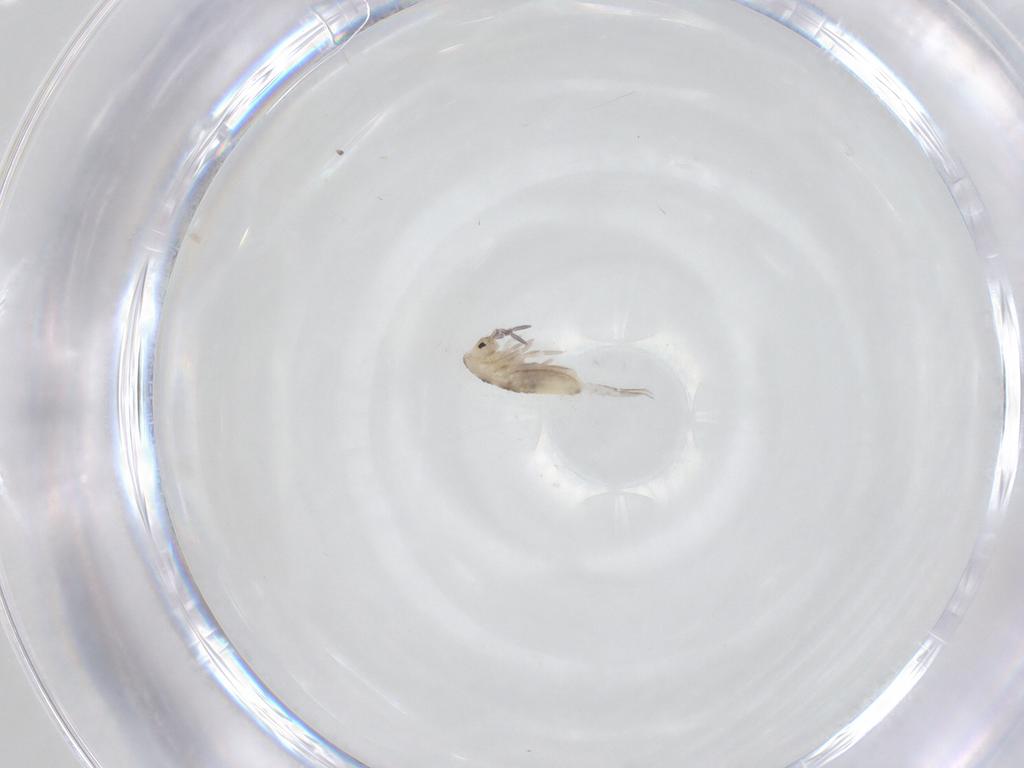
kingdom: Animalia
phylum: Arthropoda
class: Collembola
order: Entomobryomorpha
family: Entomobryidae
